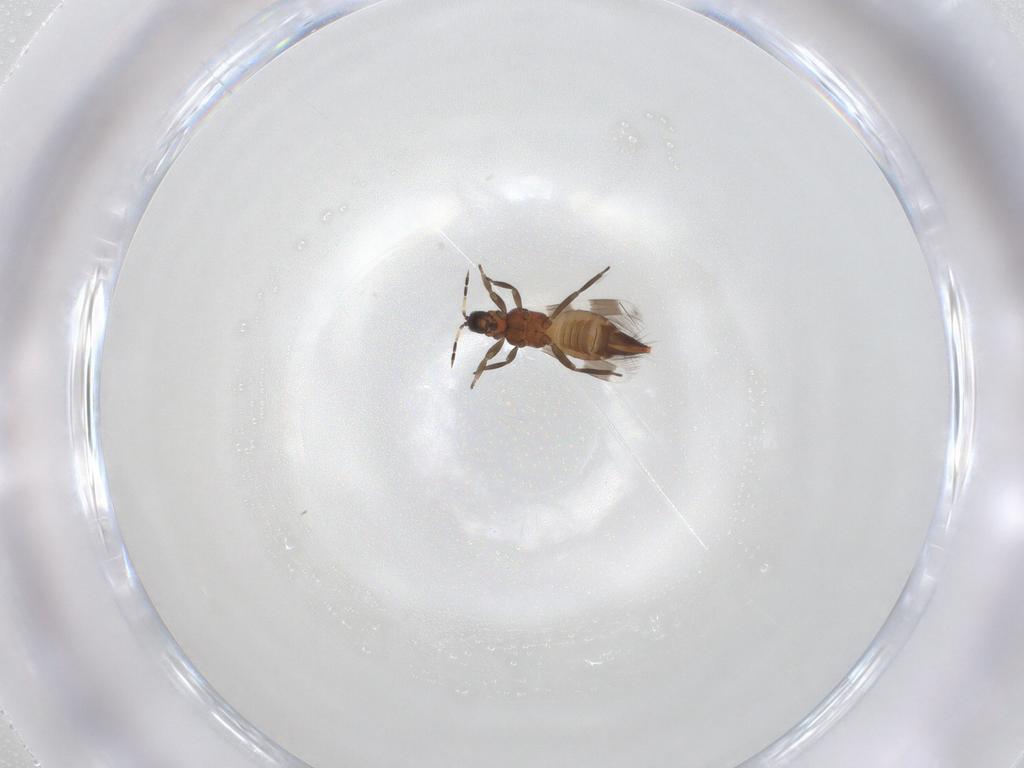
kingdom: Animalia
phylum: Arthropoda
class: Insecta
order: Thysanoptera
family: Aeolothripidae
